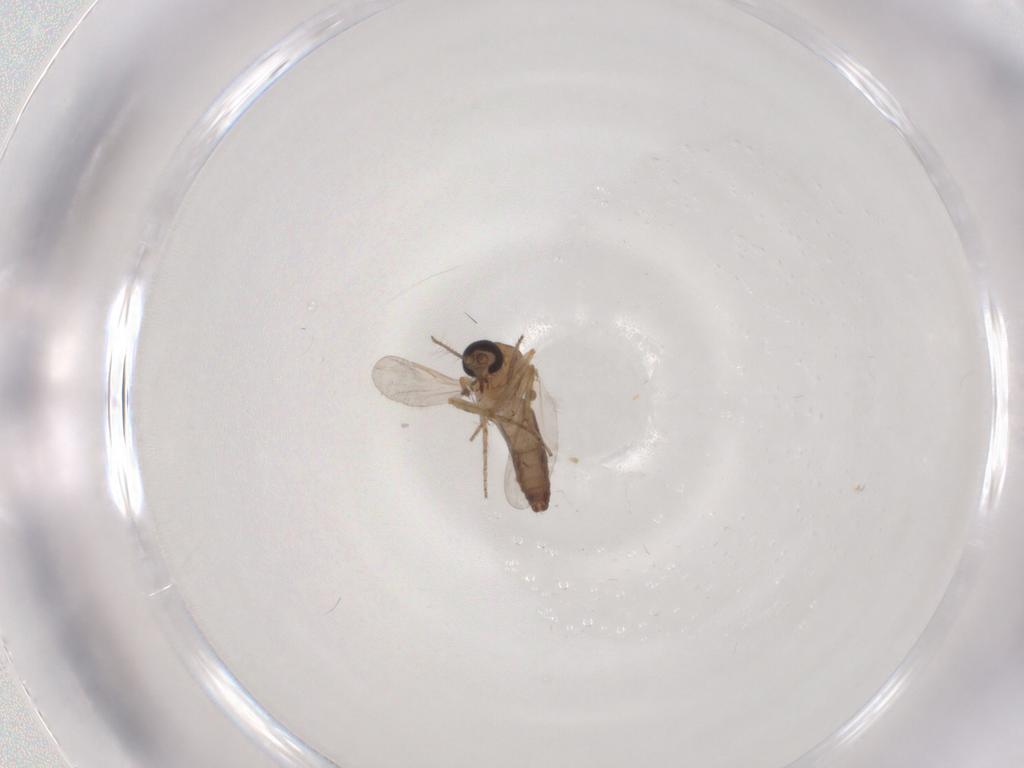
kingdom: Animalia
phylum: Arthropoda
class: Insecta
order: Diptera
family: Ceratopogonidae
